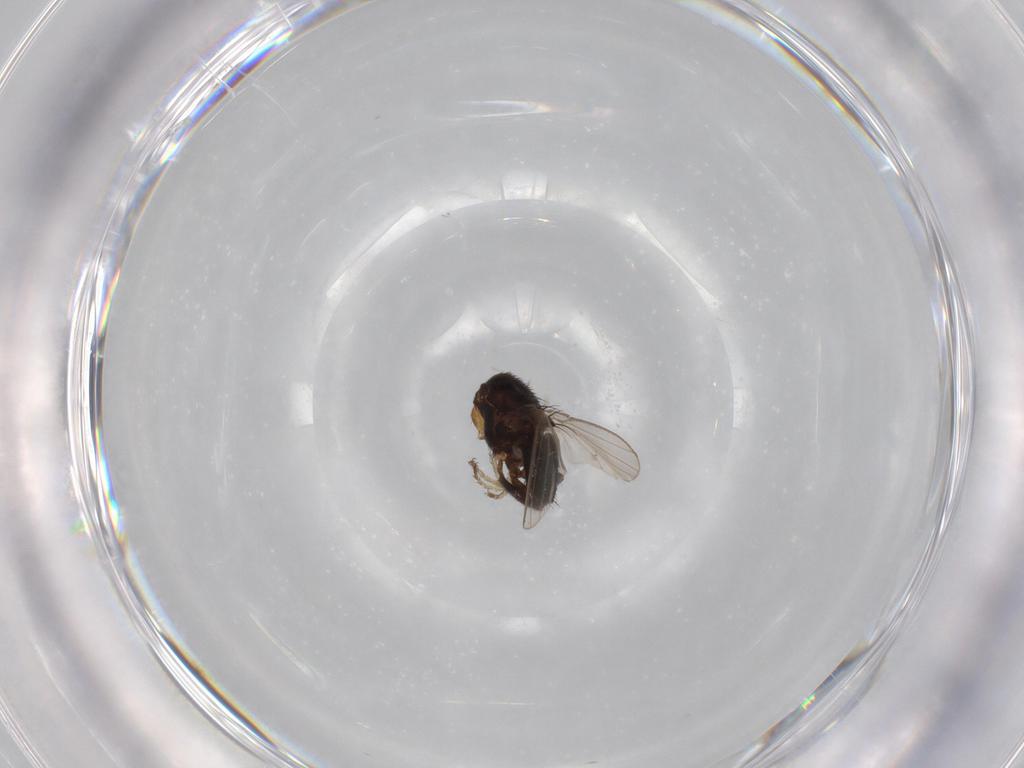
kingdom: Animalia
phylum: Arthropoda
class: Insecta
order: Diptera
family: Milichiidae
